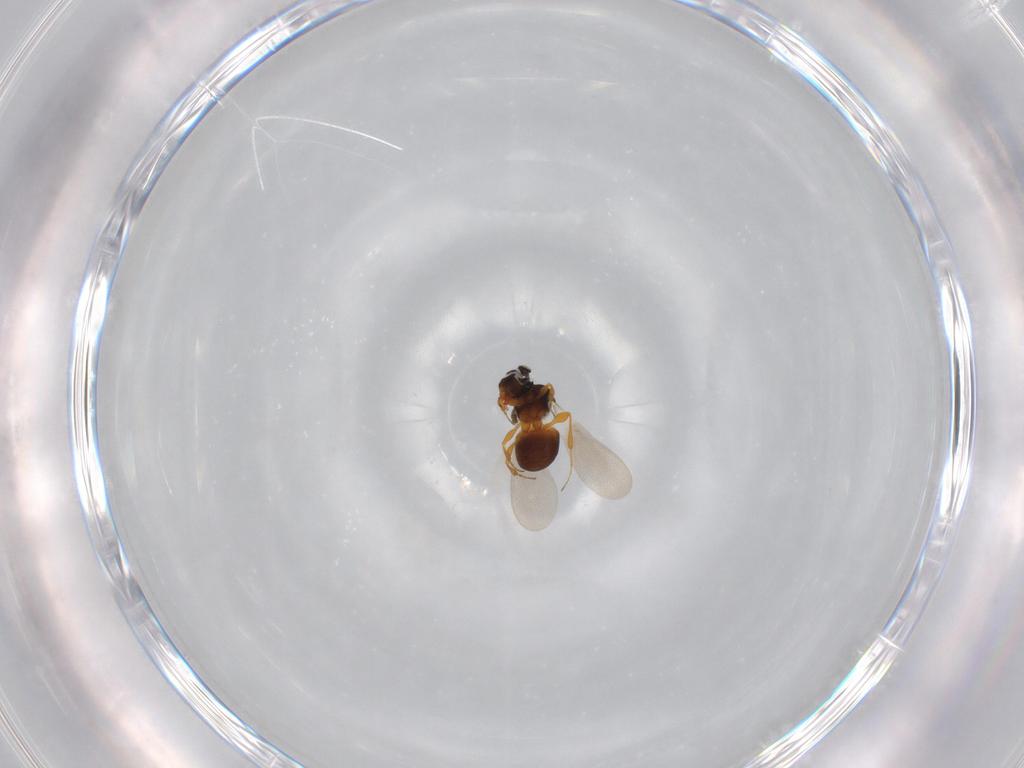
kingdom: Animalia
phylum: Arthropoda
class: Insecta
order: Hymenoptera
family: Platygastridae
